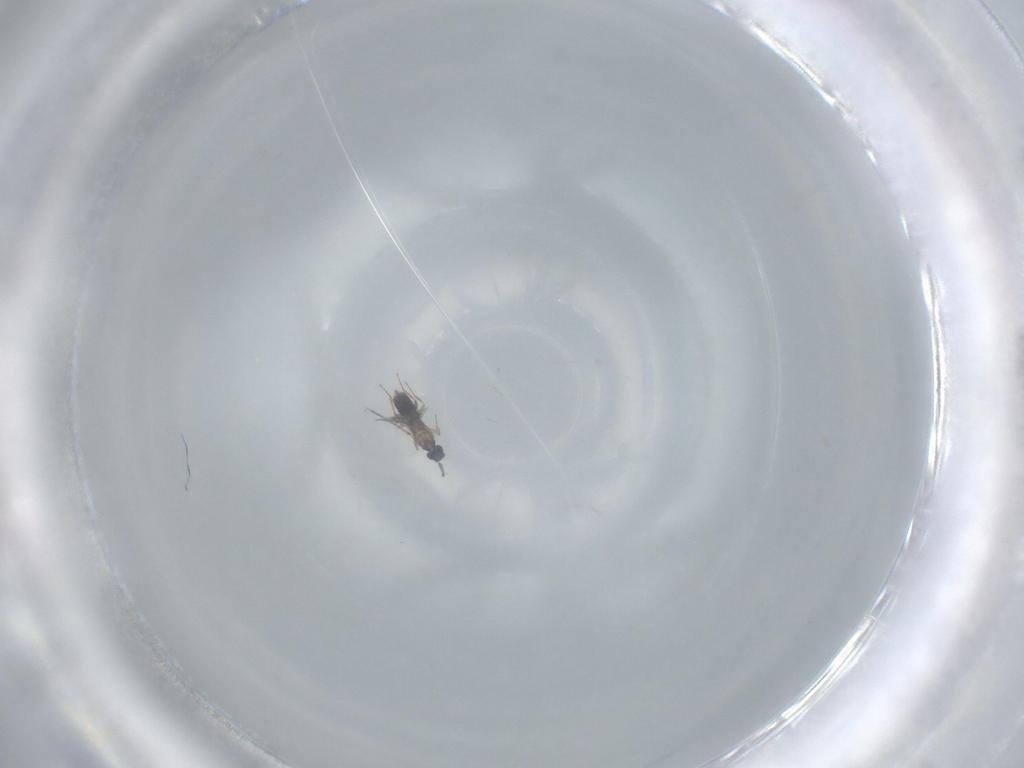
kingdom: Animalia
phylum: Arthropoda
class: Insecta
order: Hymenoptera
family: Mymaridae
